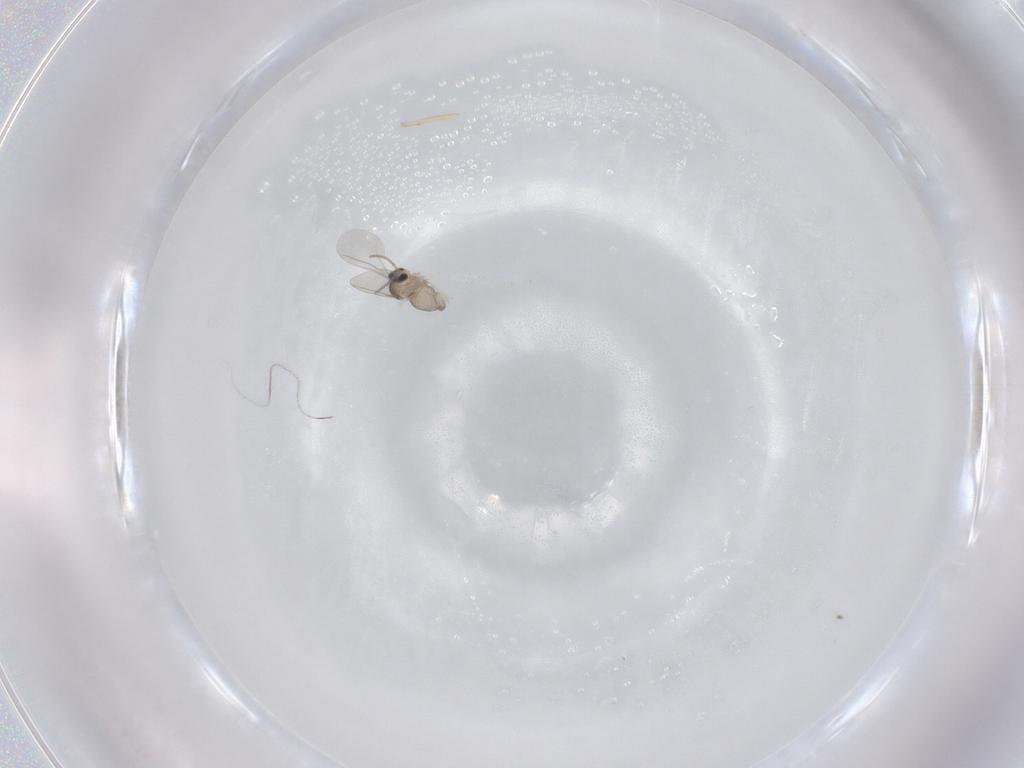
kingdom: Animalia
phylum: Arthropoda
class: Insecta
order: Diptera
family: Cecidomyiidae
